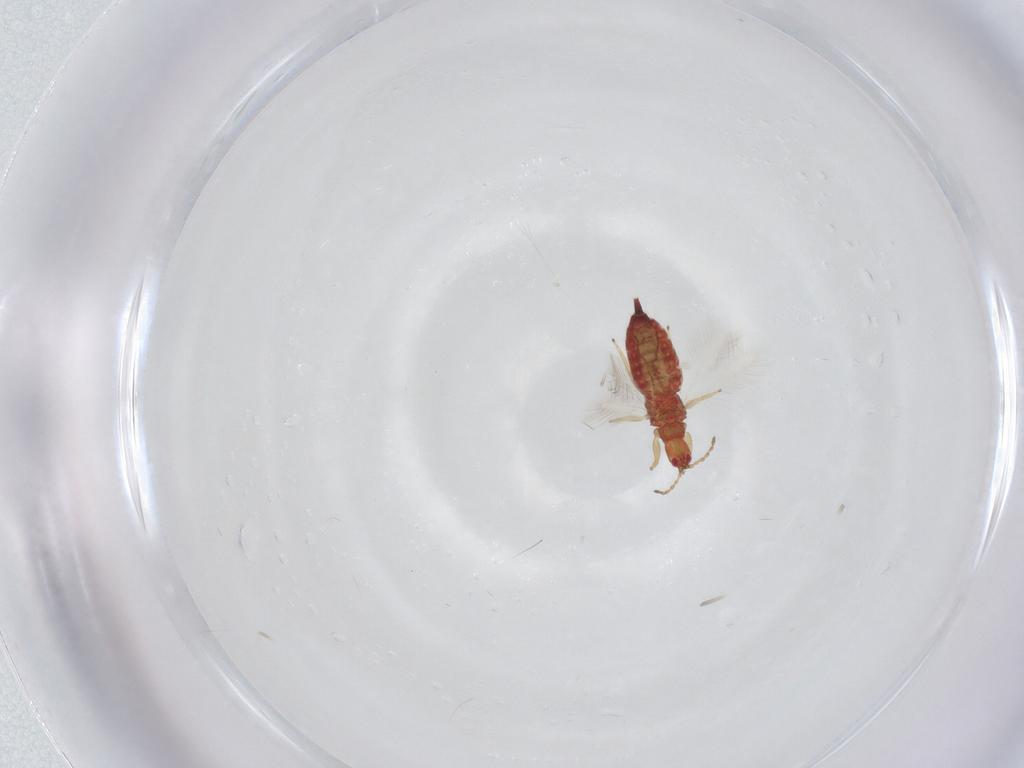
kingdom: Animalia
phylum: Arthropoda
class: Insecta
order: Thysanoptera
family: Phlaeothripidae
